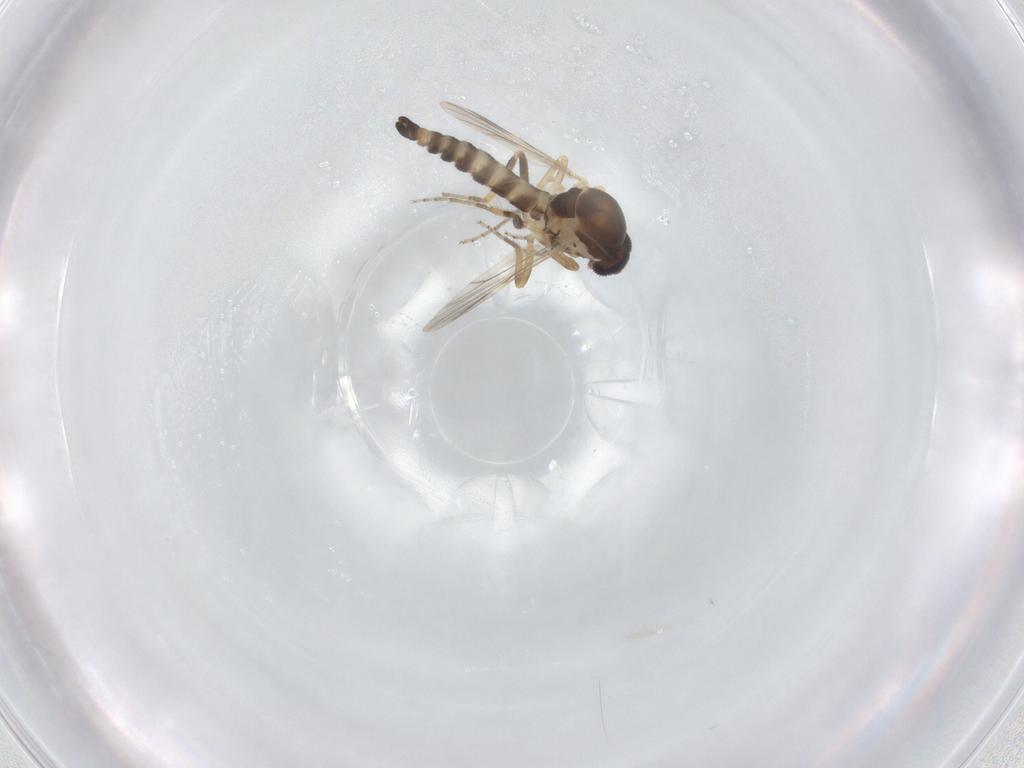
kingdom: Animalia
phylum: Arthropoda
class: Insecta
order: Diptera
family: Ceratopogonidae
